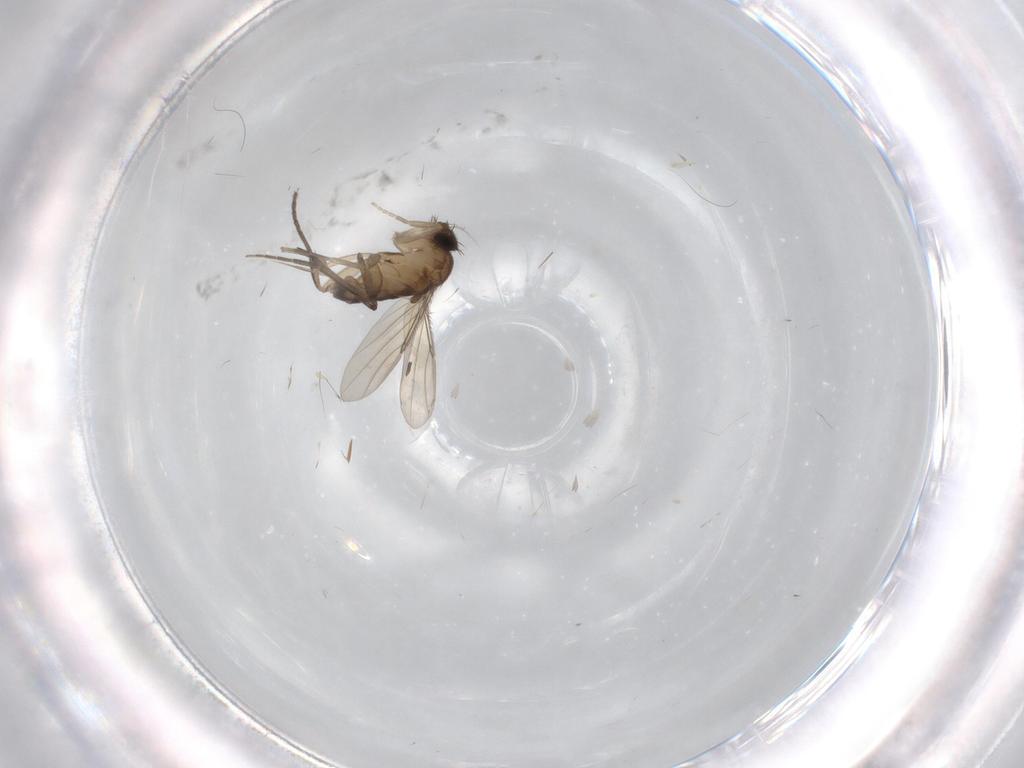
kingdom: Animalia
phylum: Arthropoda
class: Insecta
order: Diptera
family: Phoridae
